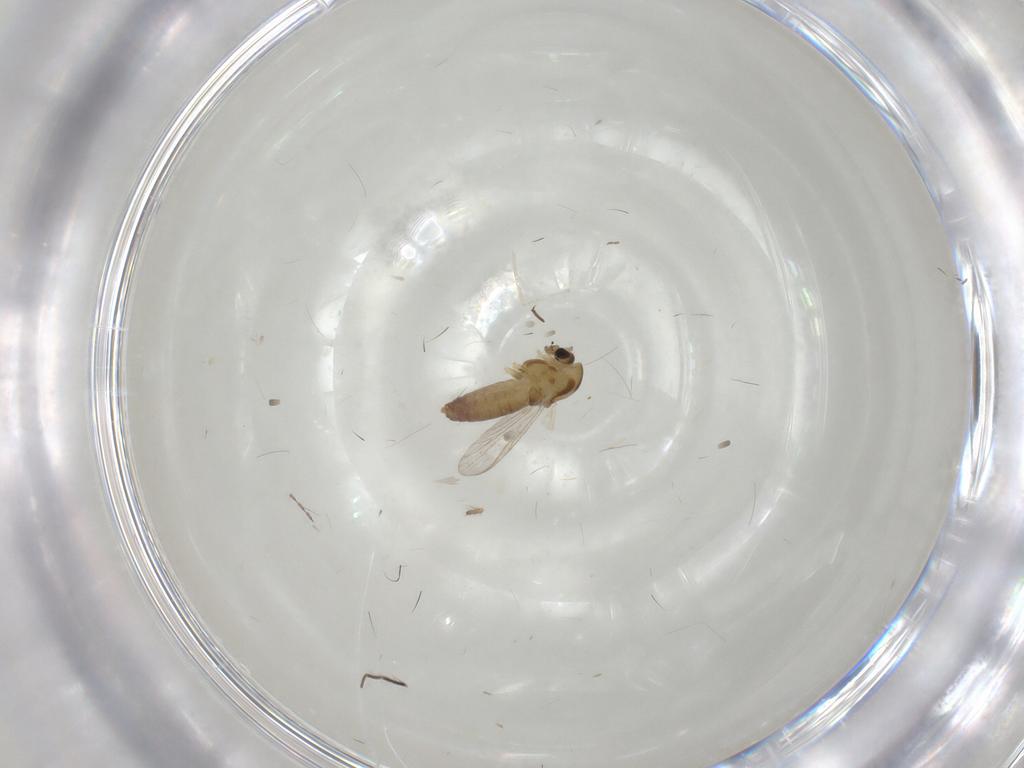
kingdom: Animalia
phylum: Arthropoda
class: Insecta
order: Diptera
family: Chironomidae
